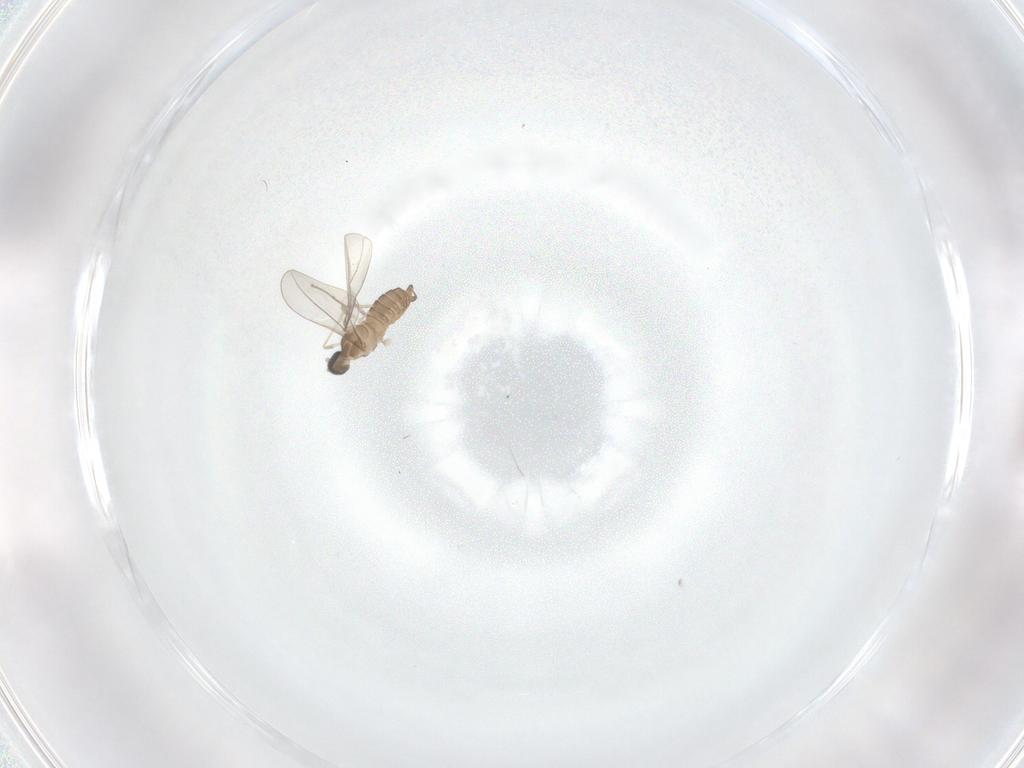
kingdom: Animalia
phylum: Arthropoda
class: Insecta
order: Diptera
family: Cecidomyiidae
